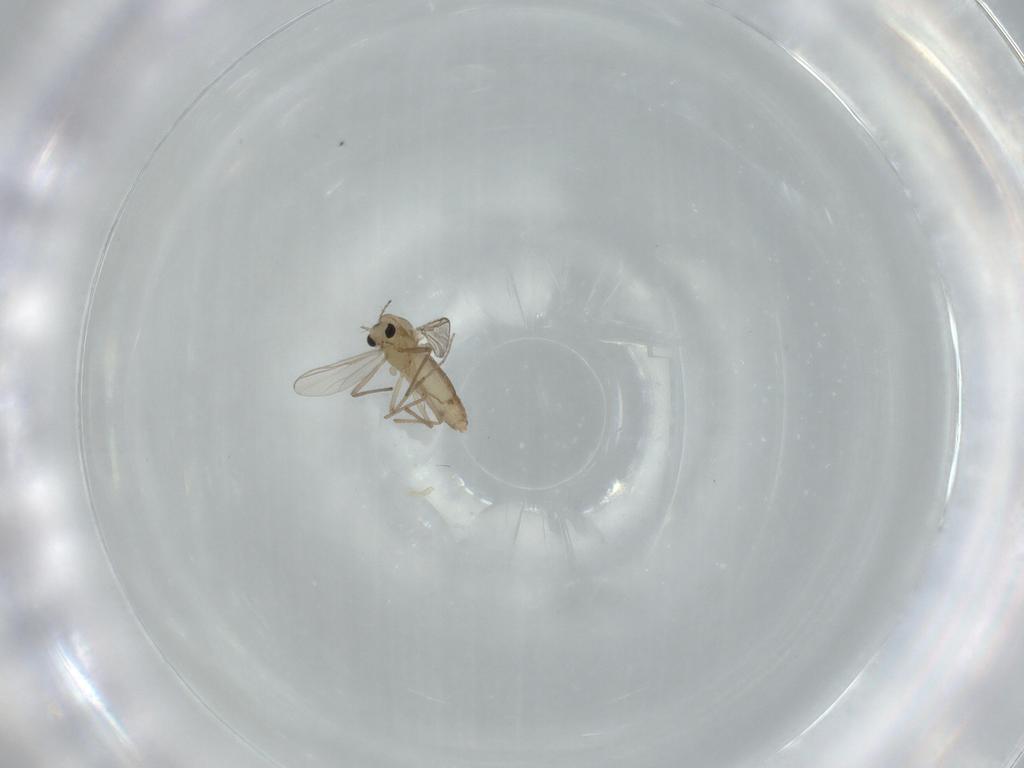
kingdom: Animalia
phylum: Arthropoda
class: Insecta
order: Diptera
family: Chironomidae
